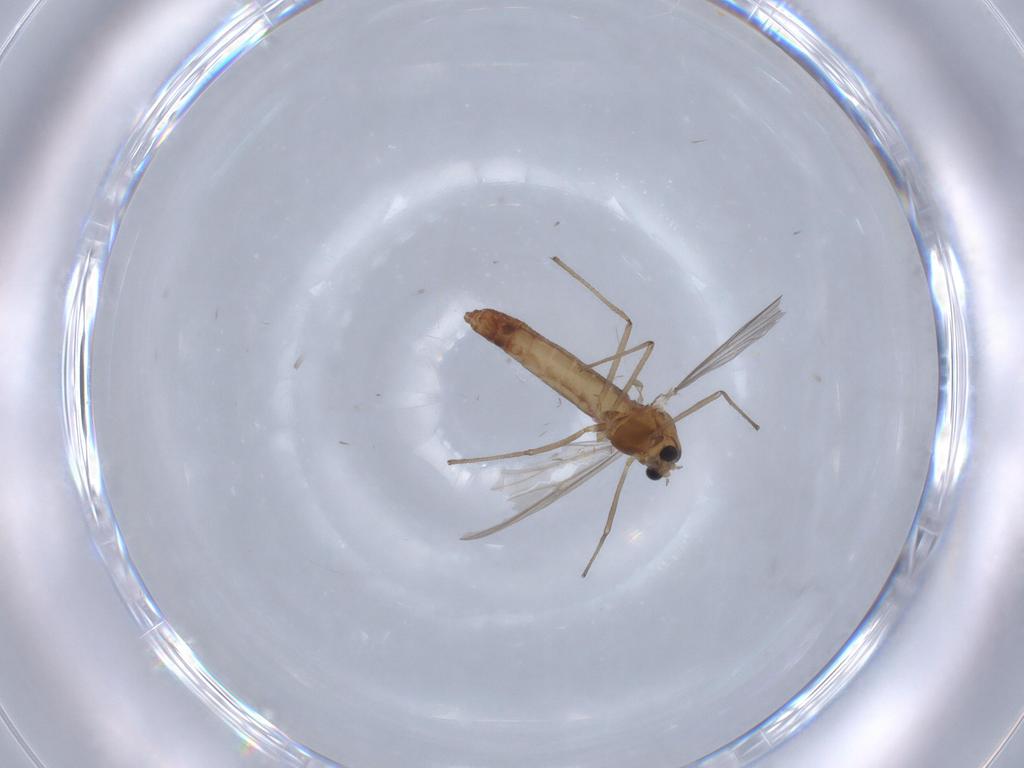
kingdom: Animalia
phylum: Arthropoda
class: Insecta
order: Diptera
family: Chironomidae
